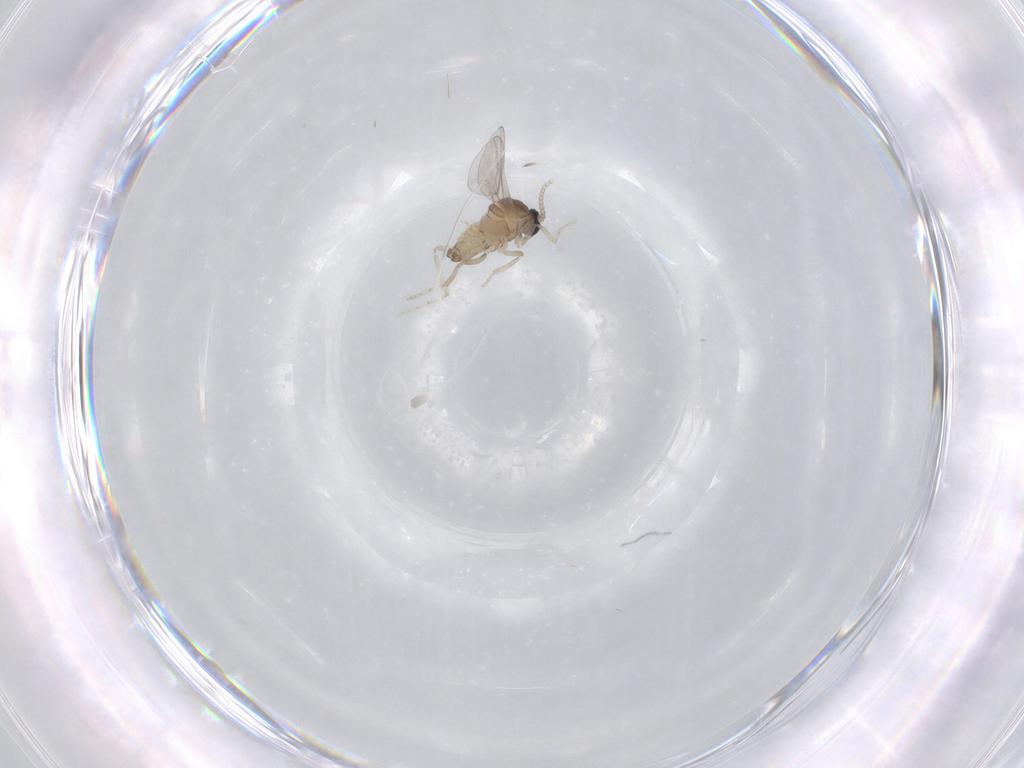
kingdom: Animalia
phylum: Arthropoda
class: Insecta
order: Diptera
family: Cecidomyiidae
